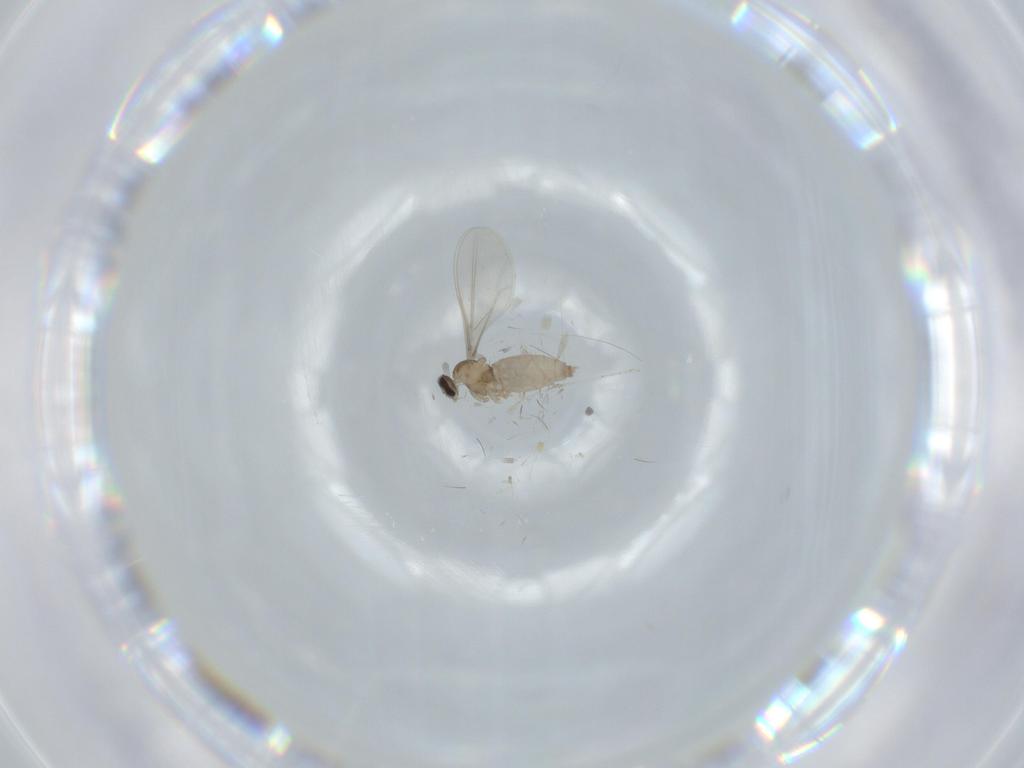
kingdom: Animalia
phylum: Arthropoda
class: Insecta
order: Diptera
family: Cecidomyiidae
